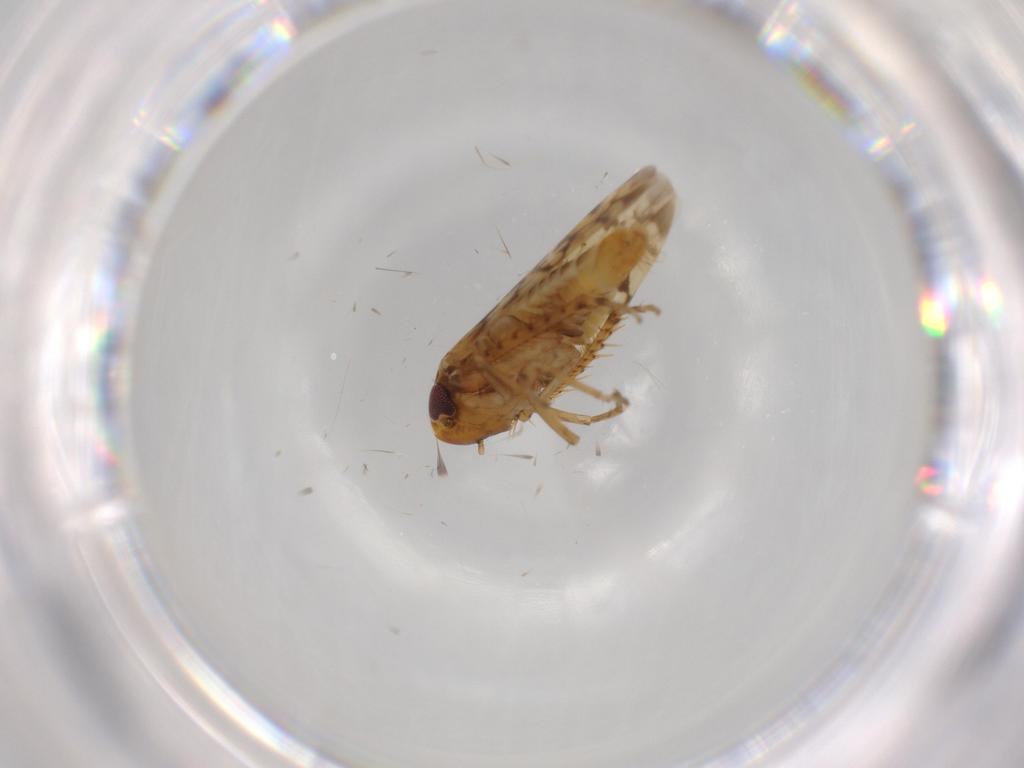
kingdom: Animalia
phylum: Arthropoda
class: Insecta
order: Hemiptera
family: Cicadellidae
